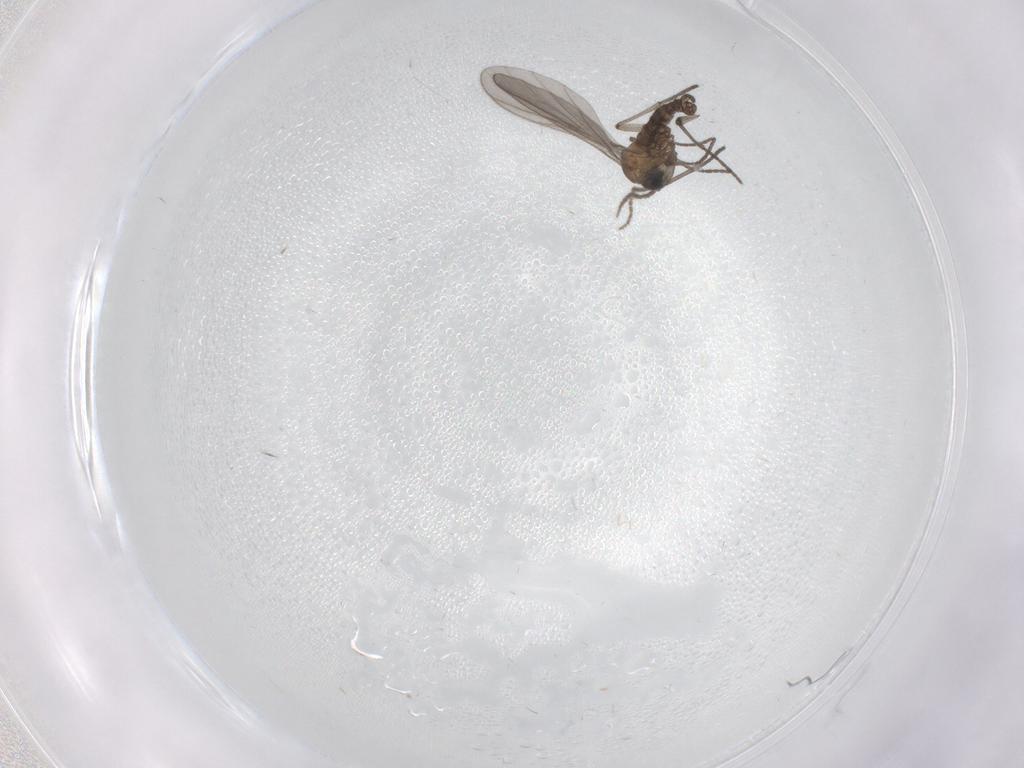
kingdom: Animalia
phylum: Arthropoda
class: Insecta
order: Diptera
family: Sciaridae
